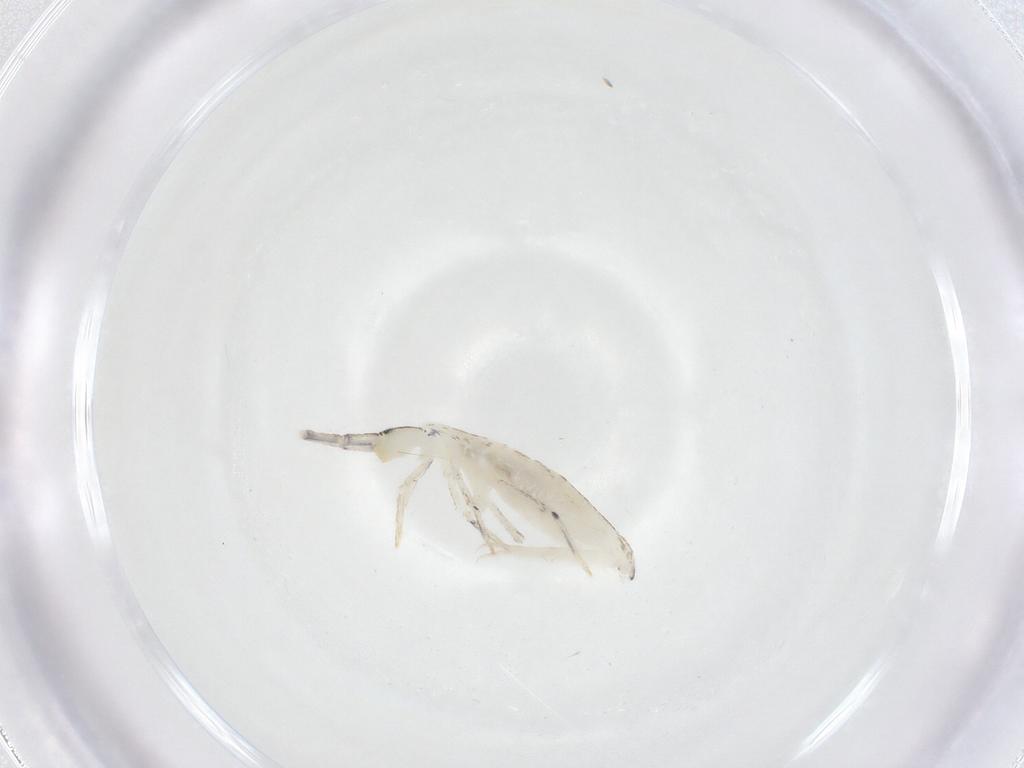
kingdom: Animalia
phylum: Arthropoda
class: Collembola
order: Entomobryomorpha
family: Entomobryidae
